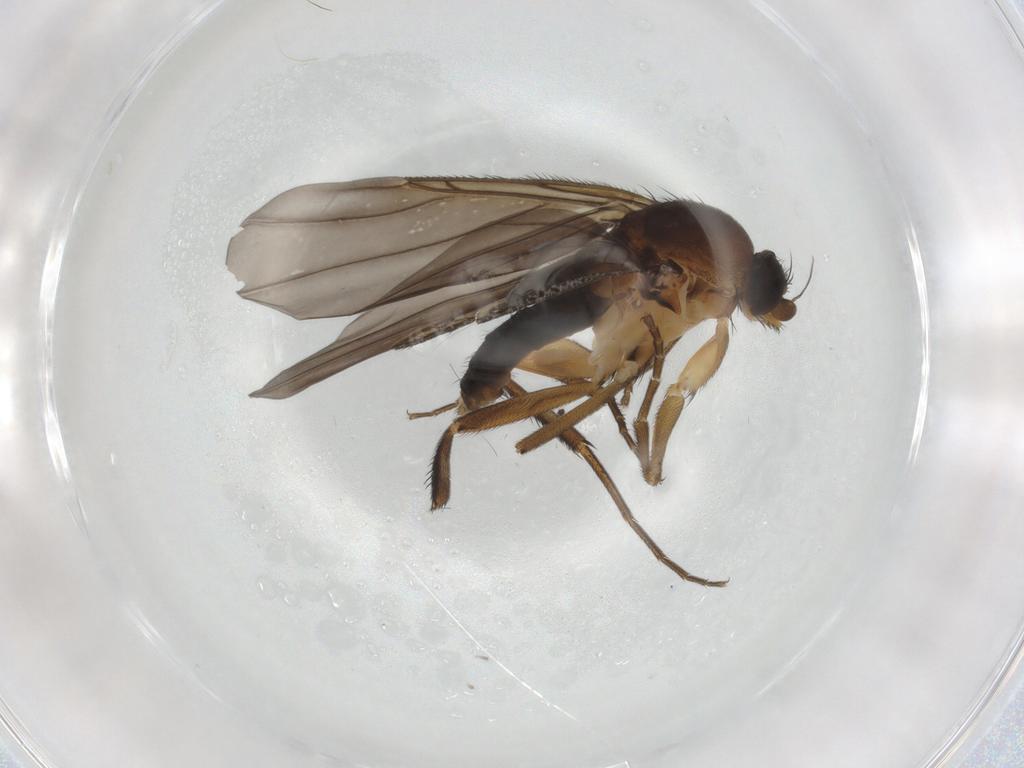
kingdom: Animalia
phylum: Arthropoda
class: Insecta
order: Diptera
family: Phoridae
